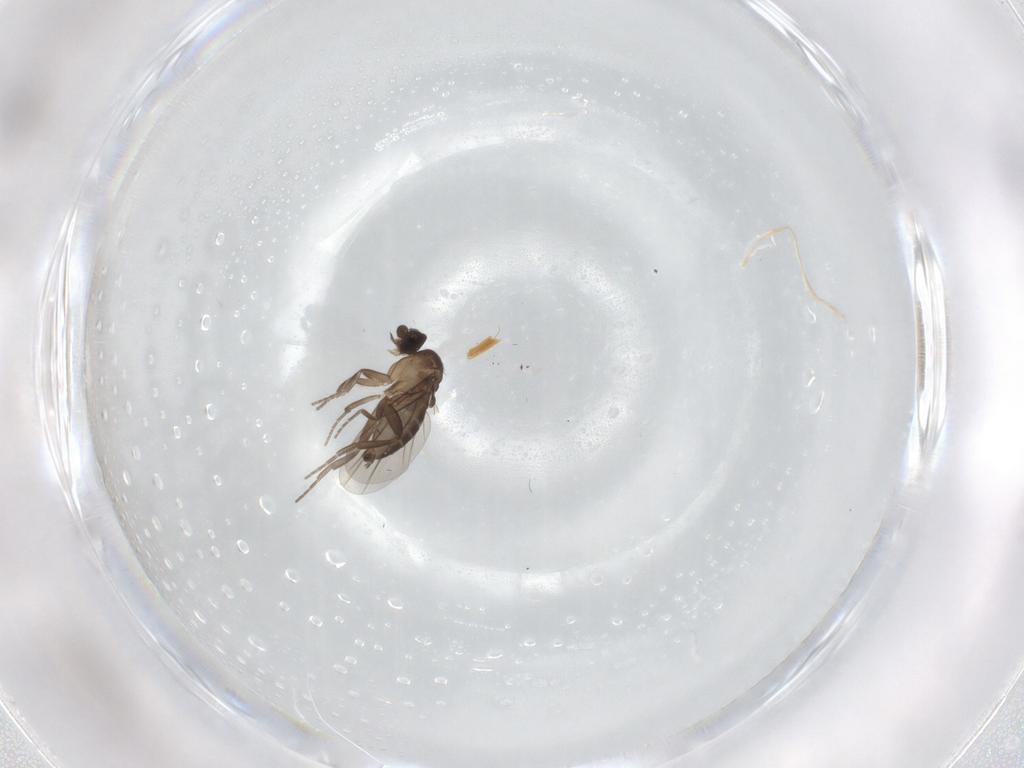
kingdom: Animalia
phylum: Arthropoda
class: Insecta
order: Diptera
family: Phoridae
